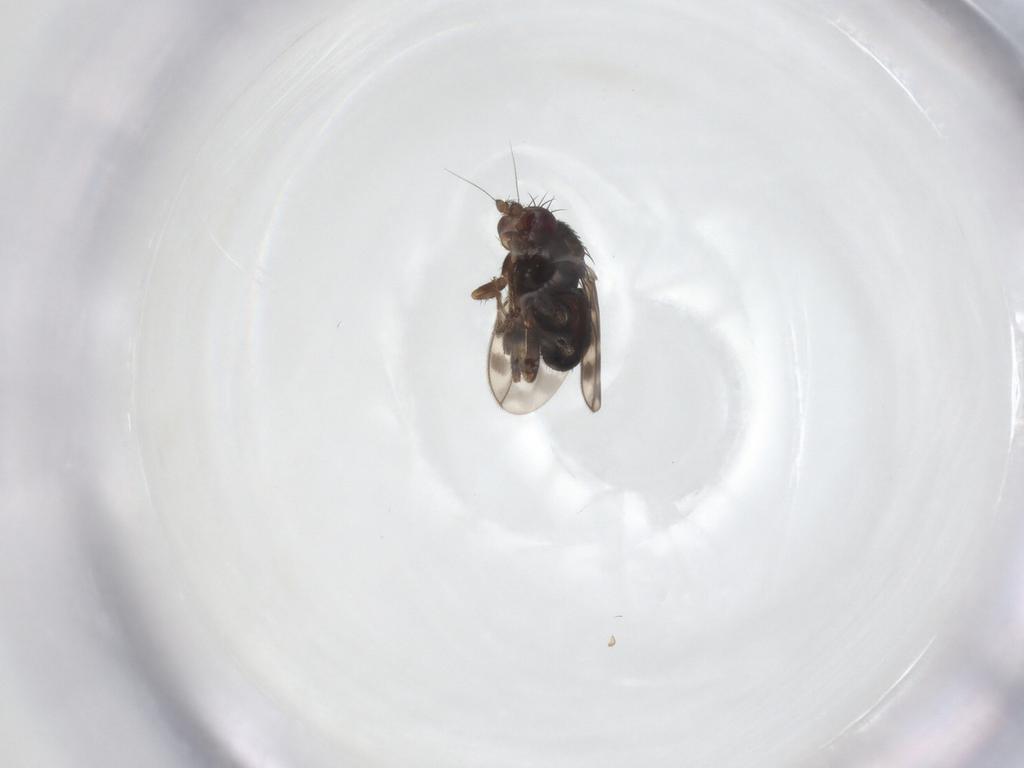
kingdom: Animalia
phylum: Arthropoda
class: Insecta
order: Diptera
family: Sphaeroceridae
